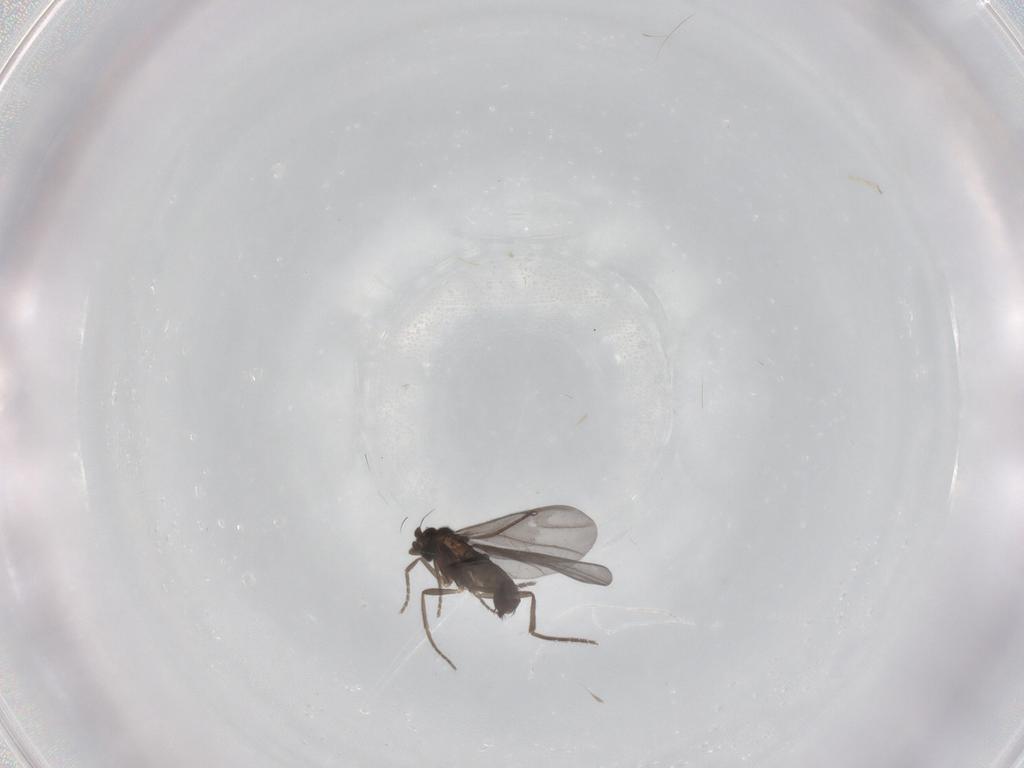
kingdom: Animalia
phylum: Arthropoda
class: Insecta
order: Diptera
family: Phoridae
